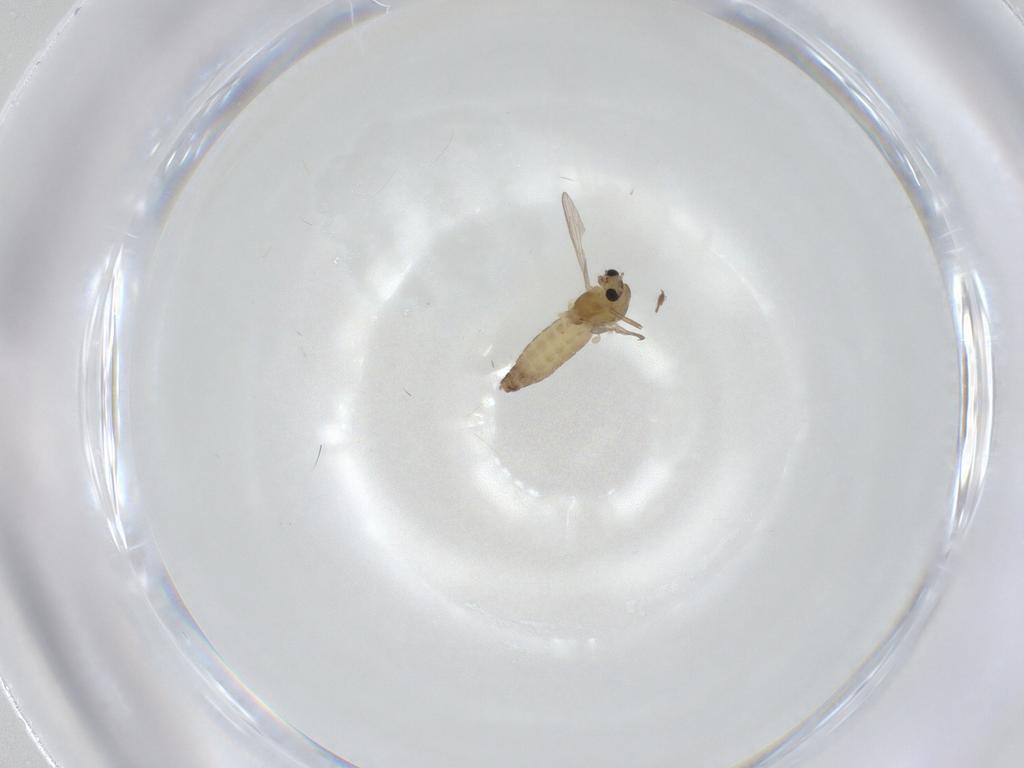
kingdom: Animalia
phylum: Arthropoda
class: Insecta
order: Diptera
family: Chironomidae
